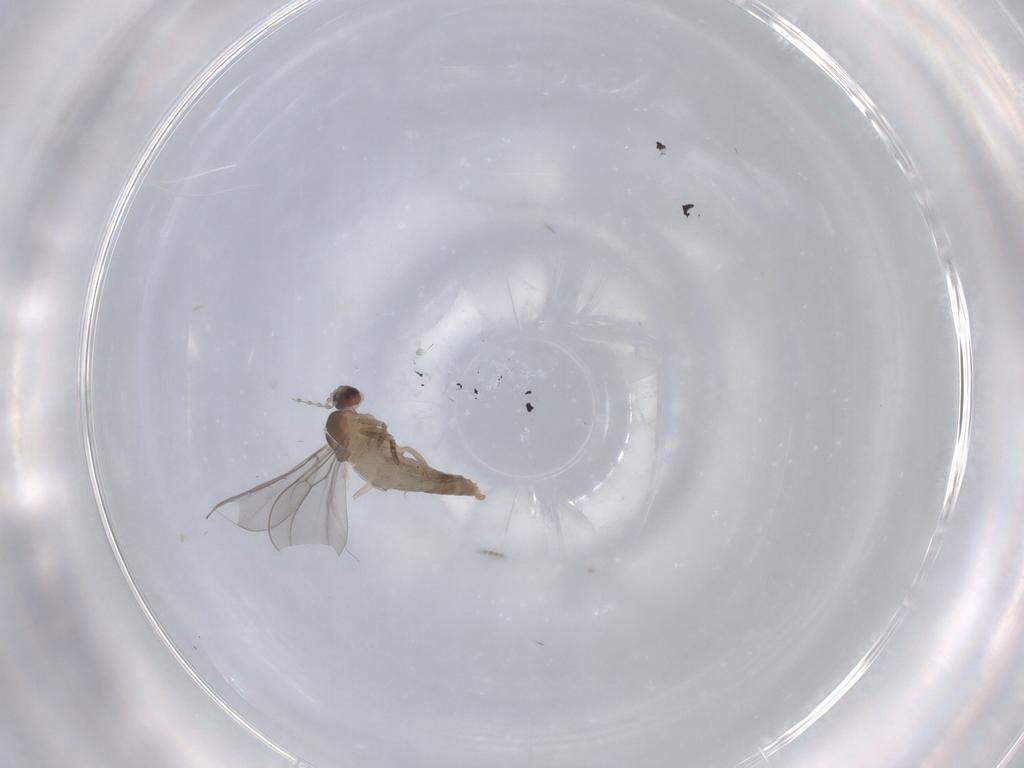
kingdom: Animalia
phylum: Arthropoda
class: Insecta
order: Diptera
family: Cecidomyiidae
